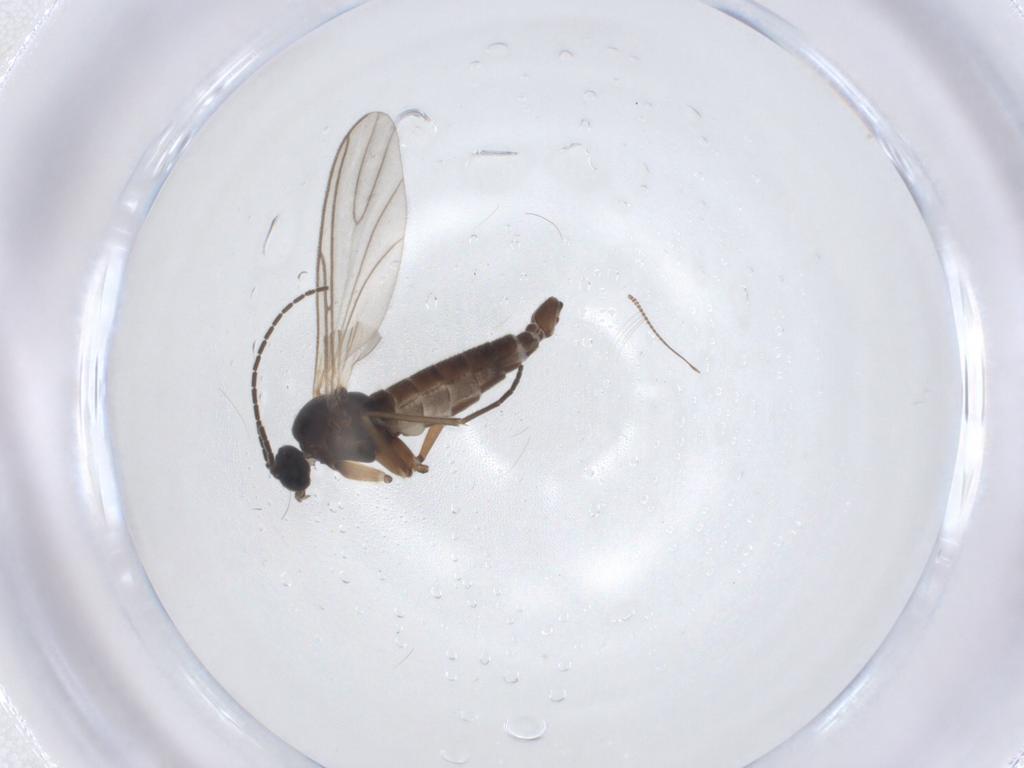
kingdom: Animalia
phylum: Arthropoda
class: Insecta
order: Diptera
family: Sciaridae
